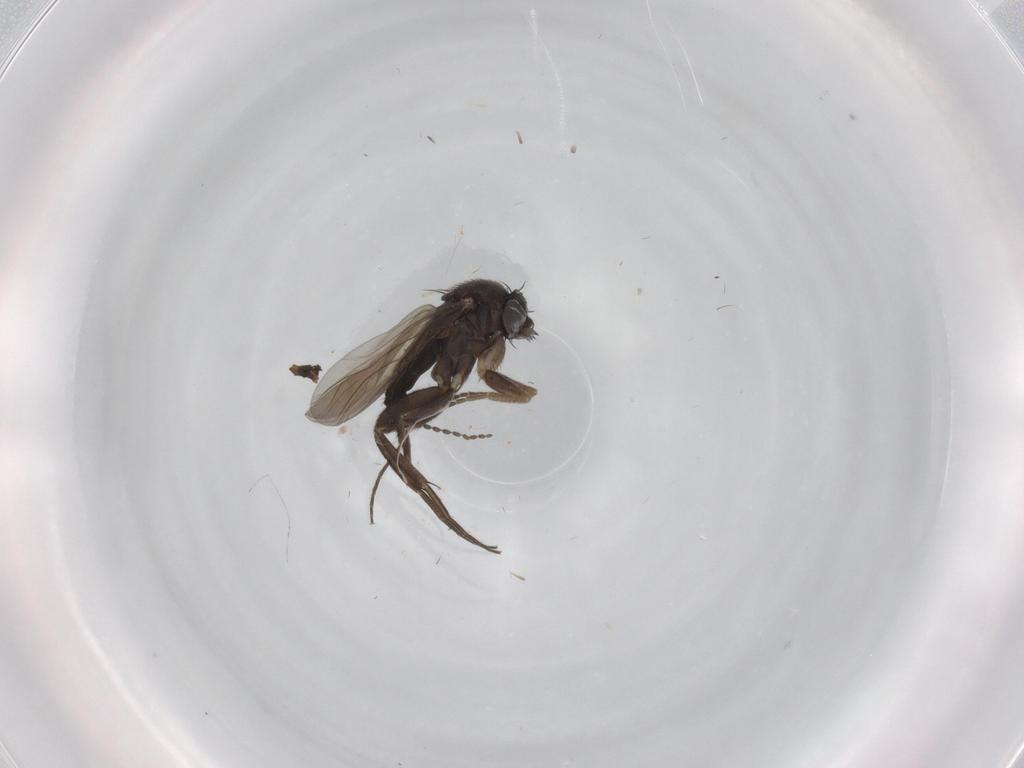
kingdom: Animalia
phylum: Arthropoda
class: Insecta
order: Diptera
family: Phoridae
